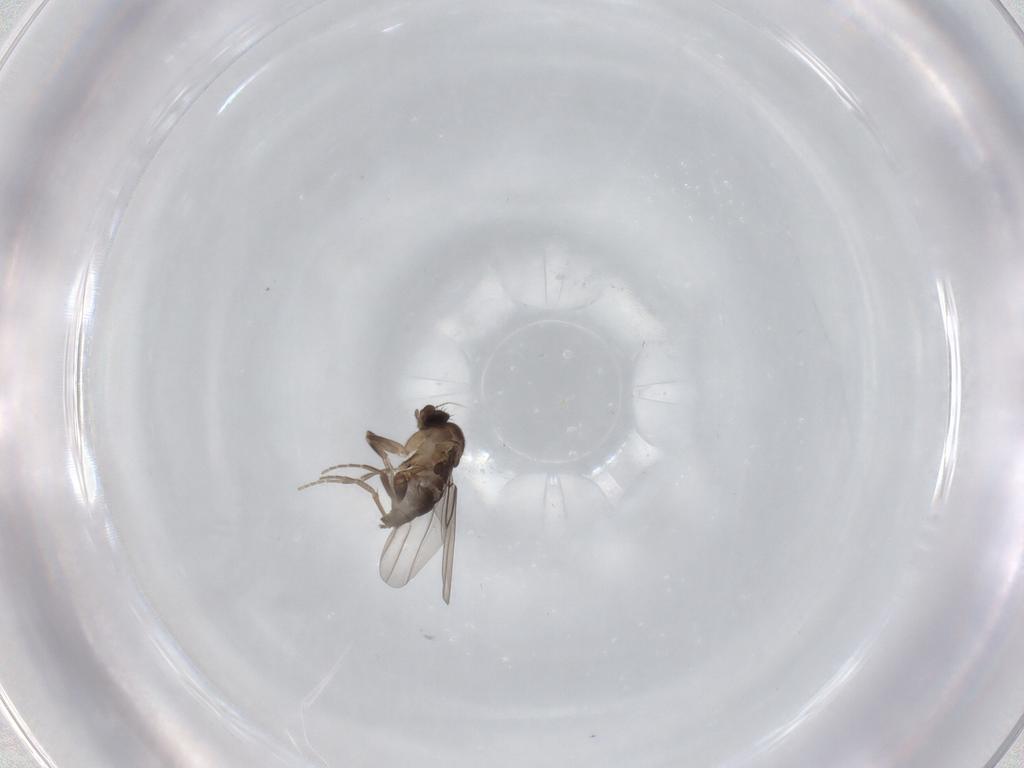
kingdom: Animalia
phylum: Arthropoda
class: Insecta
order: Diptera
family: Phoridae
